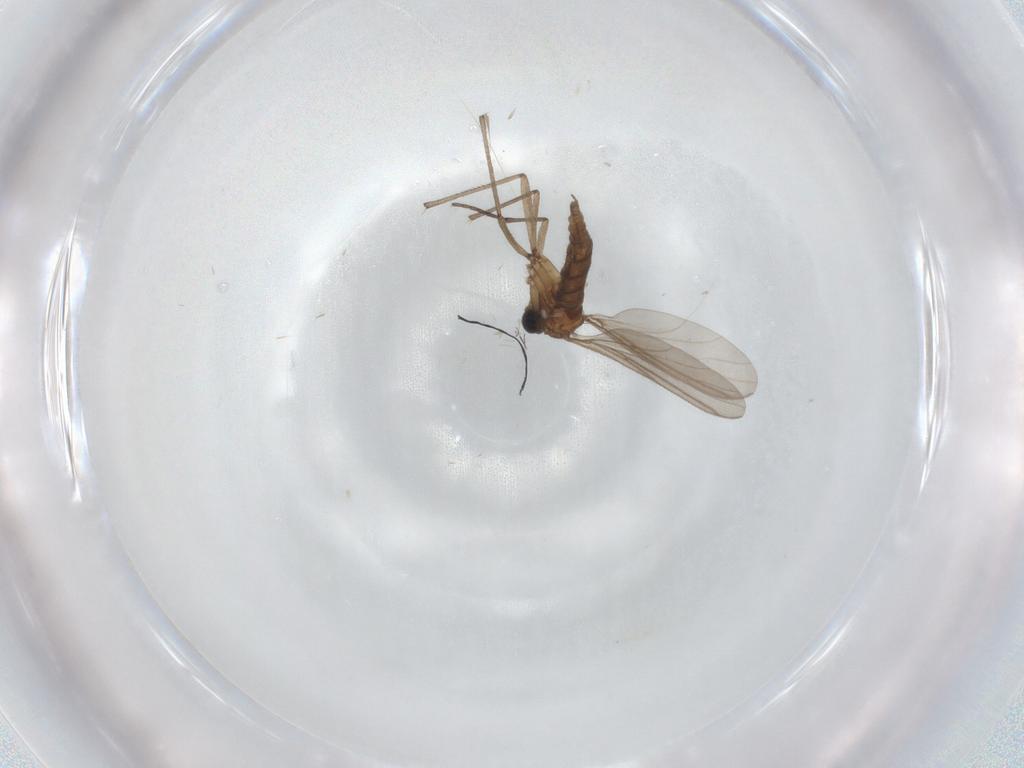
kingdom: Animalia
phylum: Arthropoda
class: Insecta
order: Diptera
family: Sciaridae
